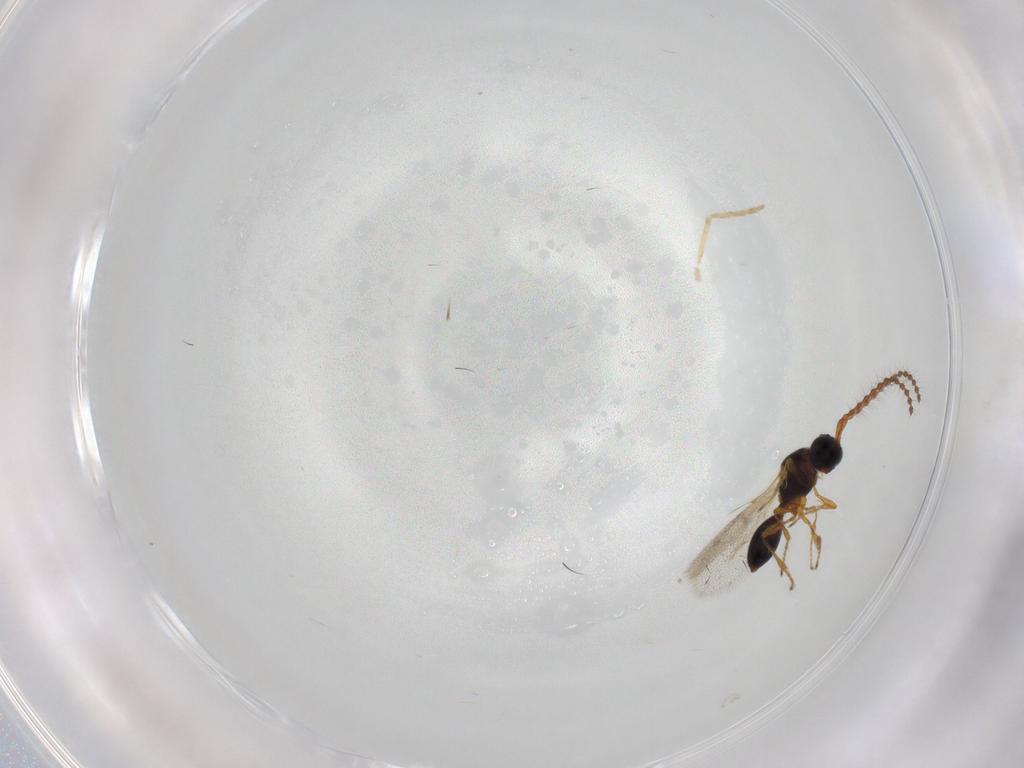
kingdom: Animalia
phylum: Arthropoda
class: Insecta
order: Hymenoptera
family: Diapriidae
